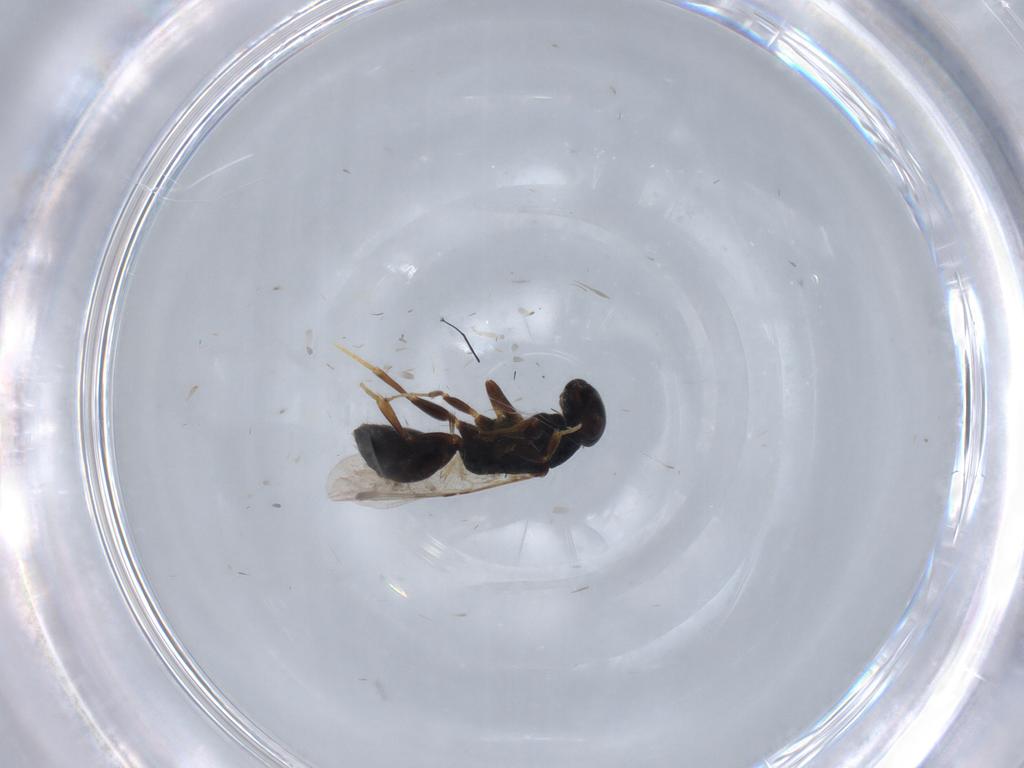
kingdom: Animalia
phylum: Arthropoda
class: Insecta
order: Hymenoptera
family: Bethylidae
